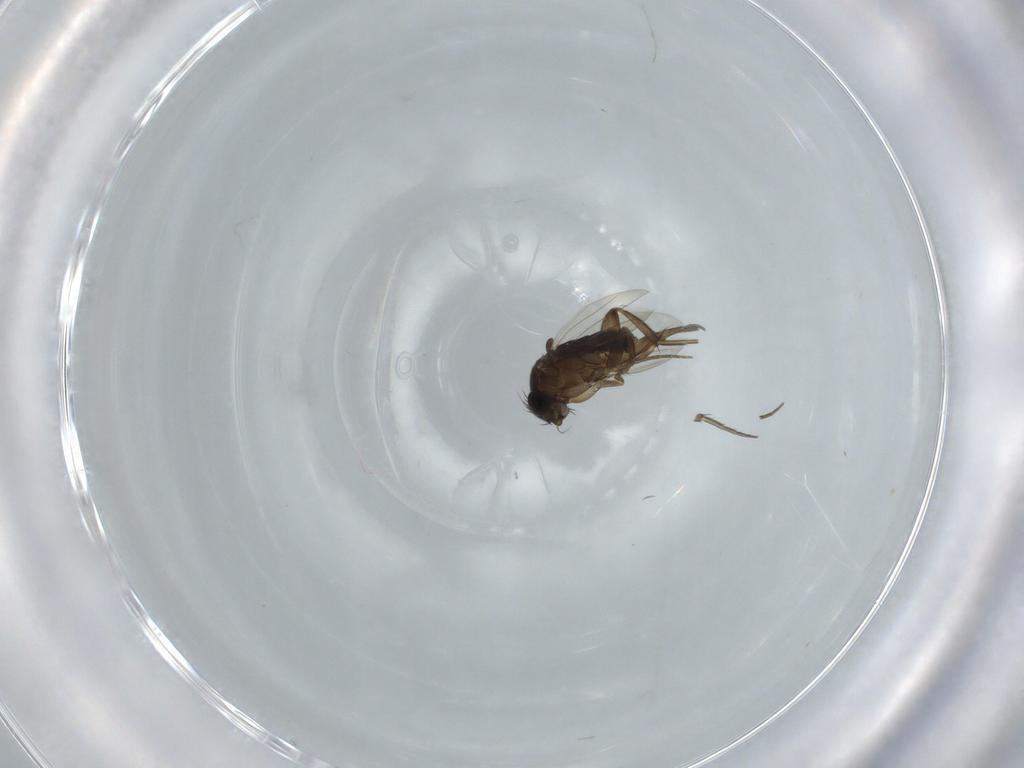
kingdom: Animalia
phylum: Arthropoda
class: Insecta
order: Diptera
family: Phoridae
